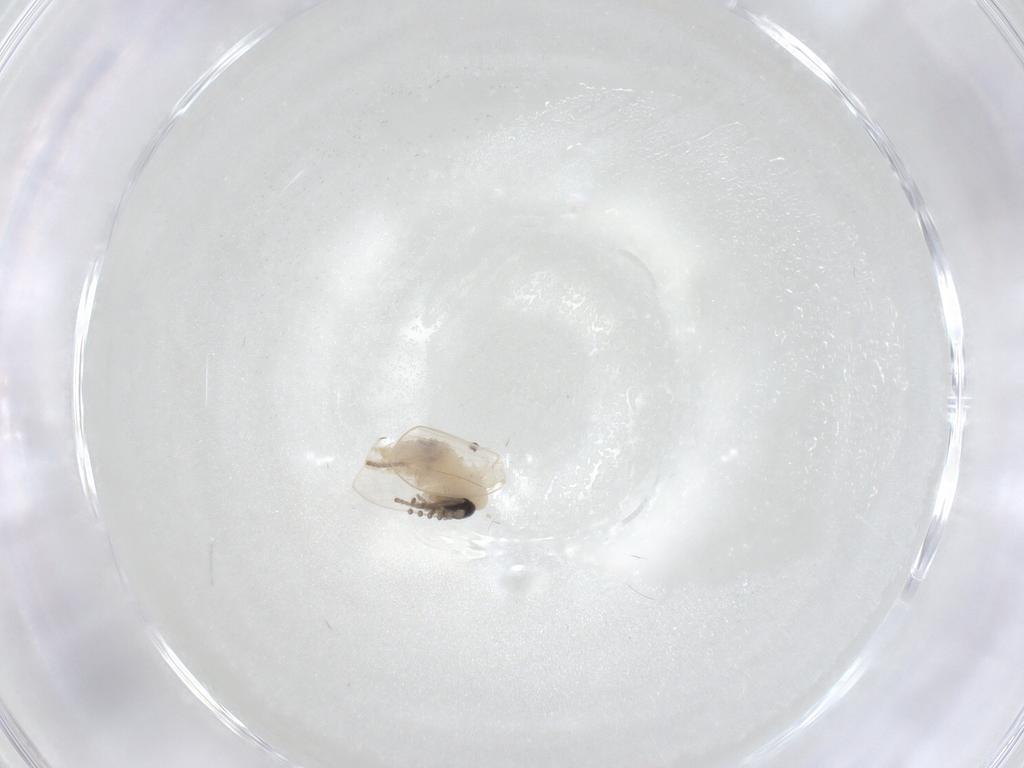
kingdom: Animalia
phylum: Arthropoda
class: Insecta
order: Diptera
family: Psychodidae
